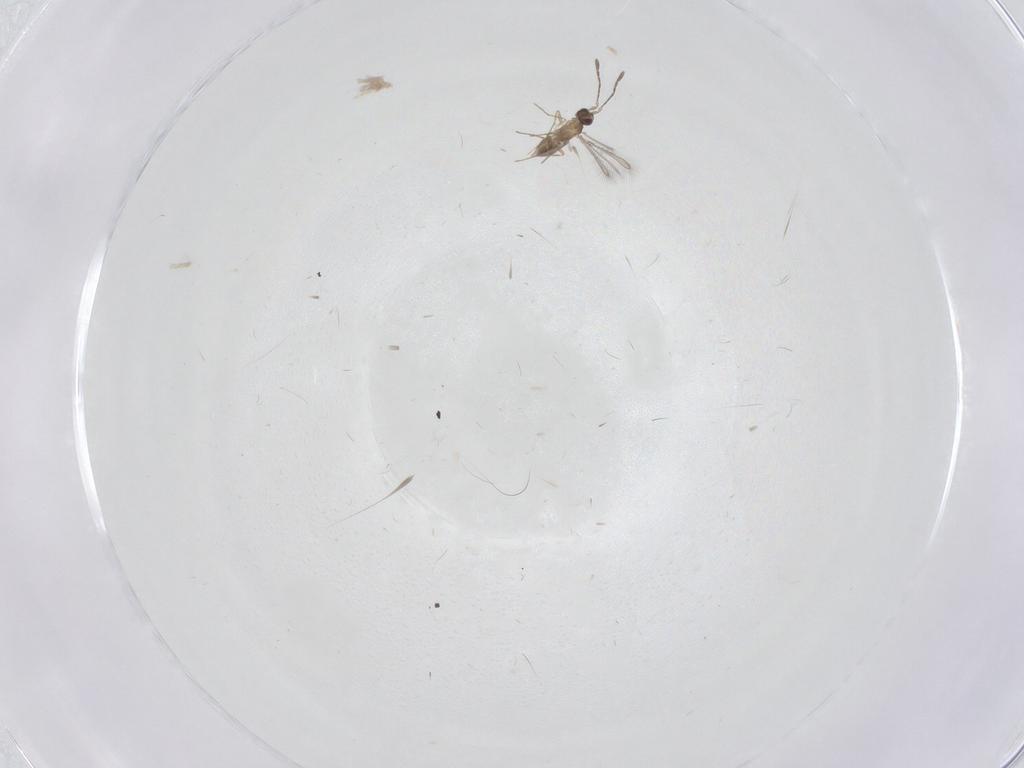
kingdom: Animalia
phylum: Arthropoda
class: Insecta
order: Hymenoptera
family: Mymaridae
